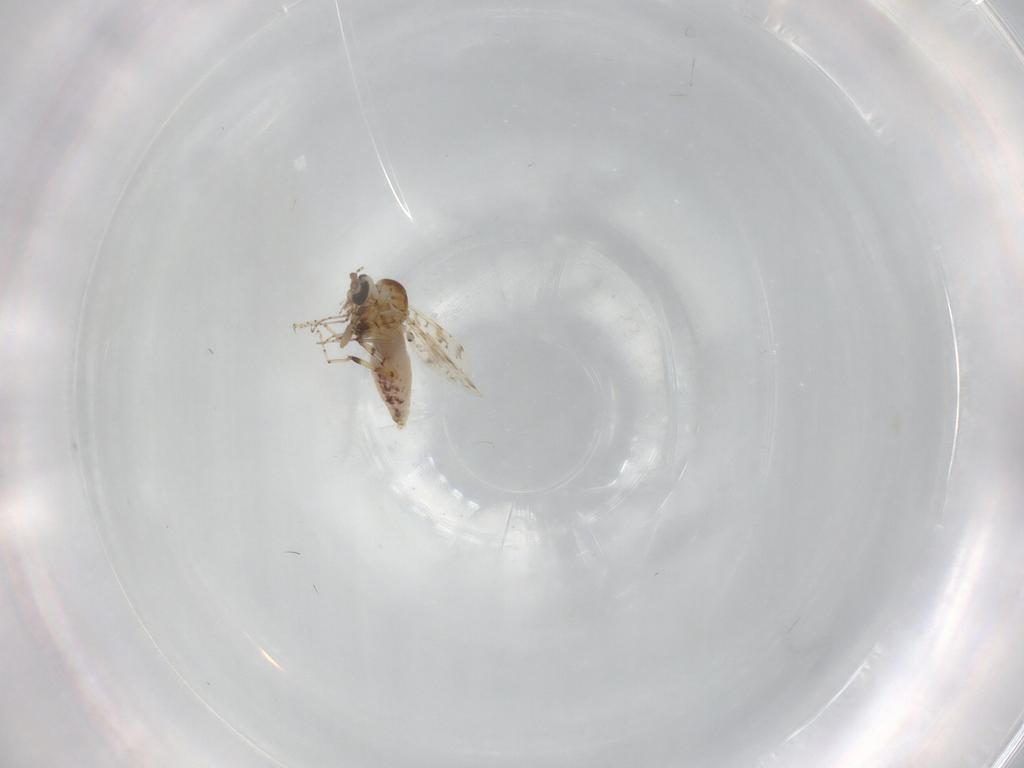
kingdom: Animalia
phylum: Arthropoda
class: Insecta
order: Diptera
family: Ceratopogonidae
